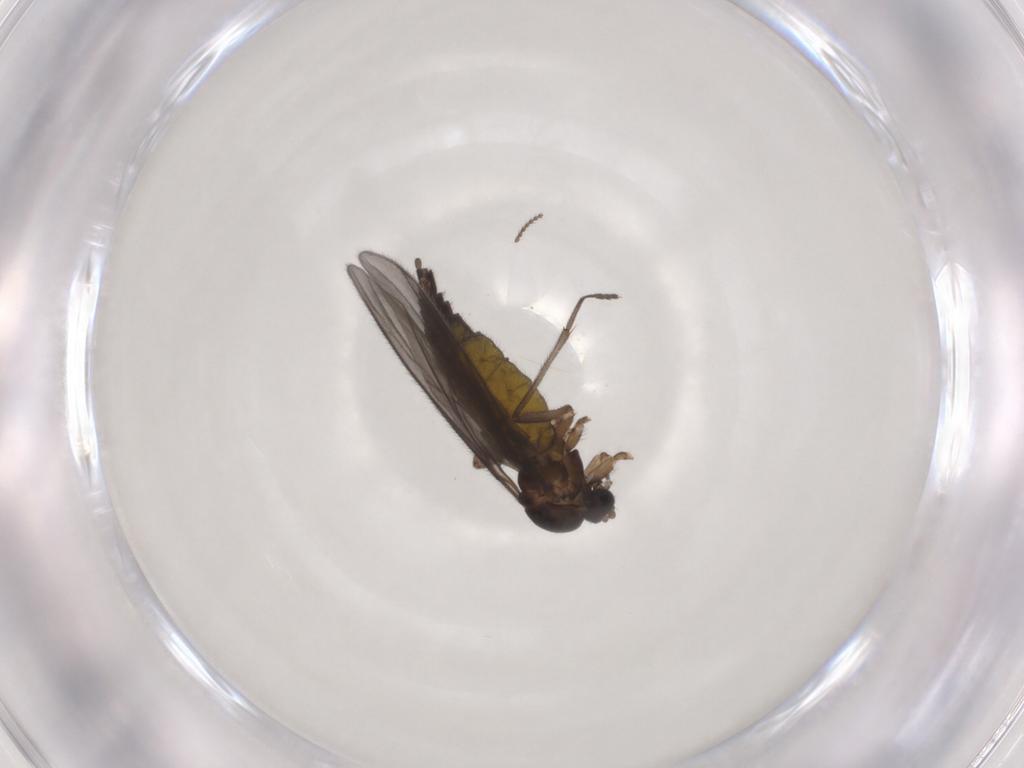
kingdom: Animalia
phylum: Arthropoda
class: Insecta
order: Diptera
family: Sciaridae
